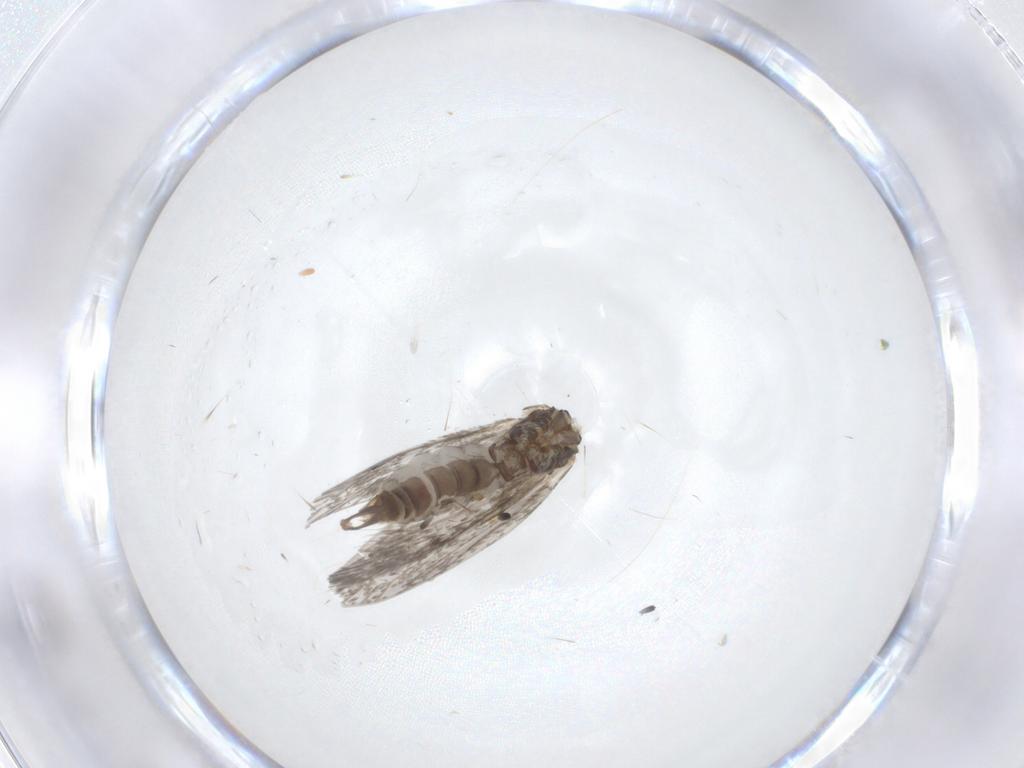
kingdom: Animalia
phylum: Arthropoda
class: Insecta
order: Lepidoptera
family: Micropterigidae
